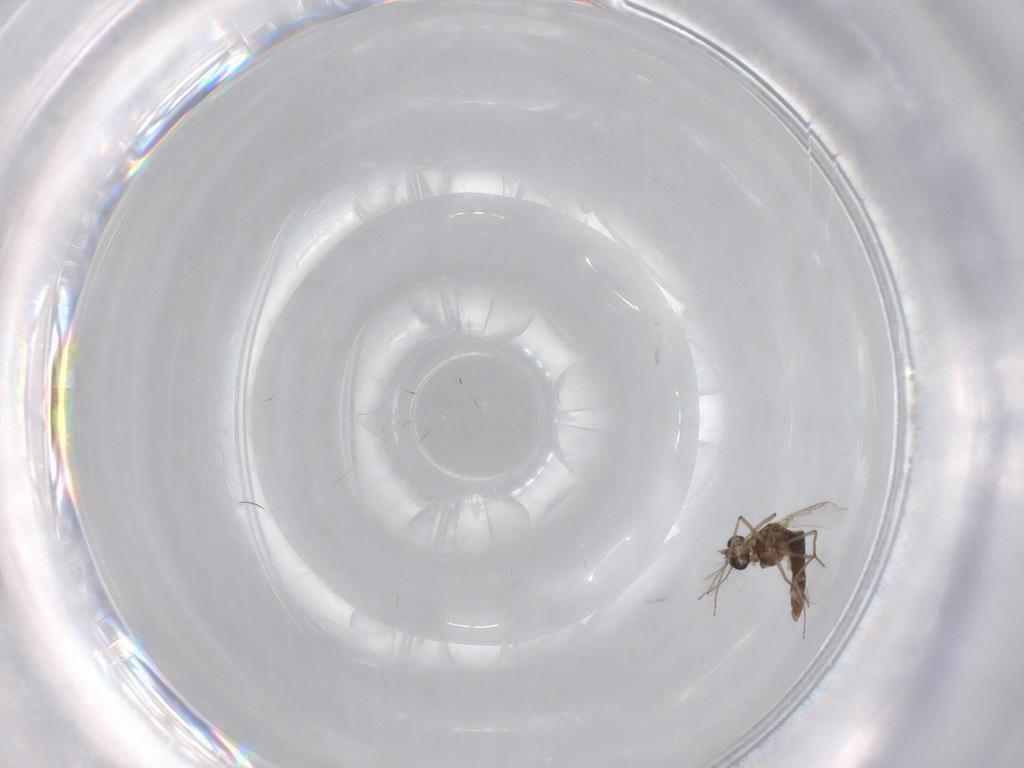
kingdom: Animalia
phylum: Arthropoda
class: Insecta
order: Diptera
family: Chironomidae
